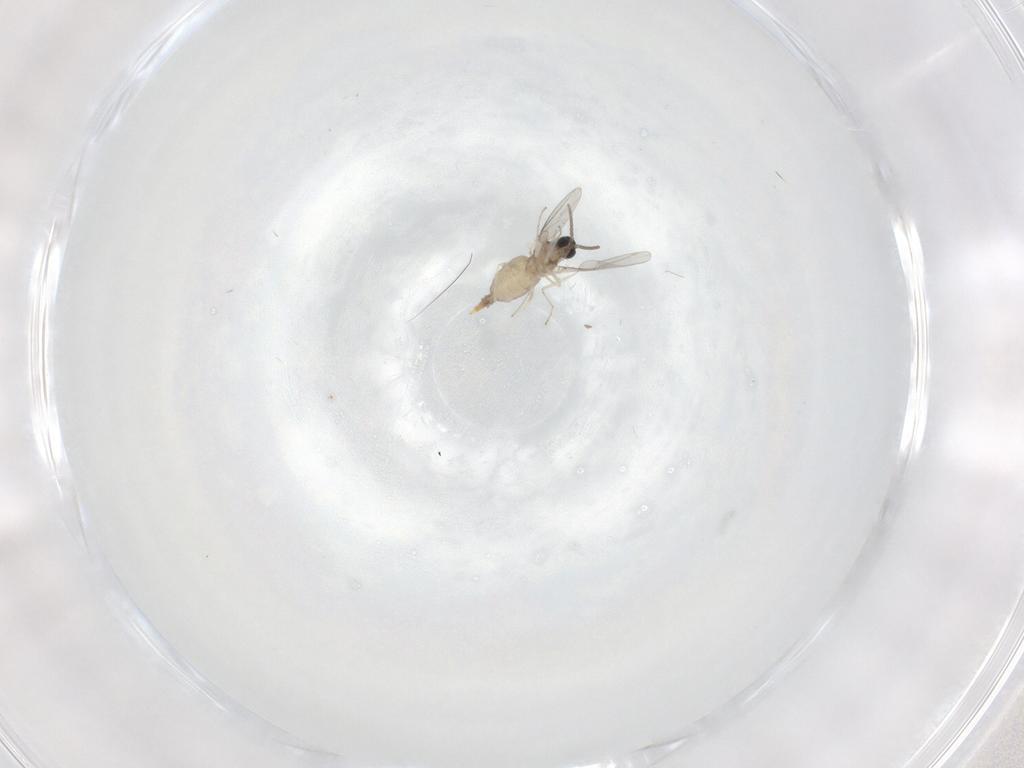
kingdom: Animalia
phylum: Arthropoda
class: Insecta
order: Diptera
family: Cecidomyiidae
